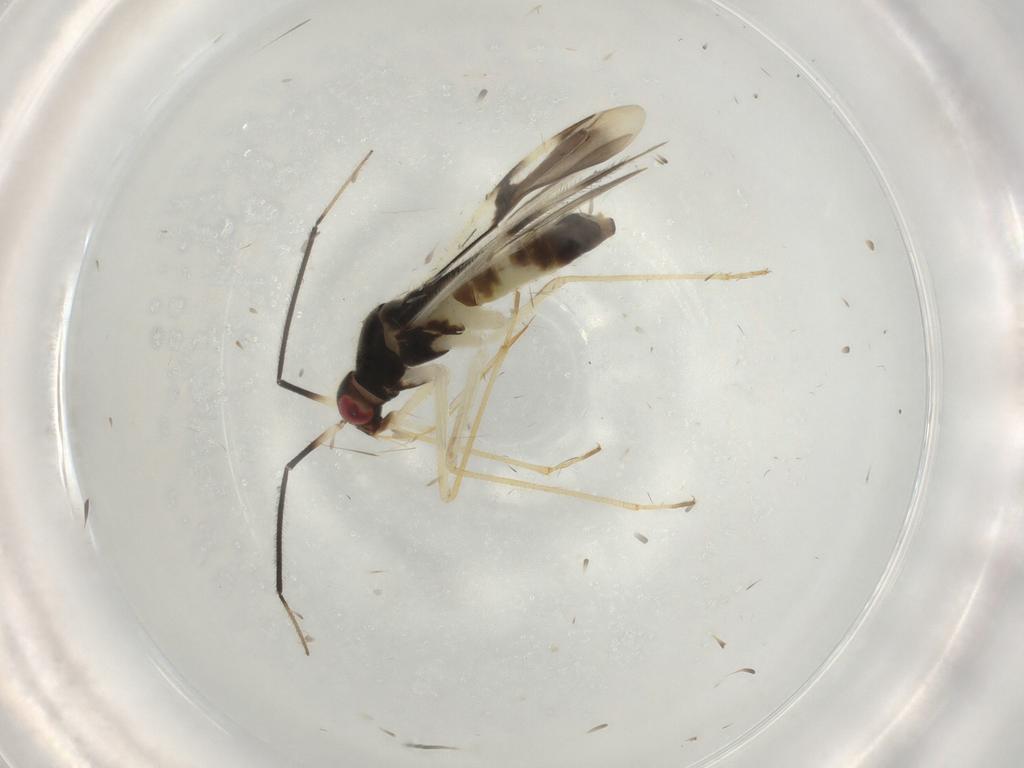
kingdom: Animalia
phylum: Arthropoda
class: Insecta
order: Hemiptera
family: Miridae
